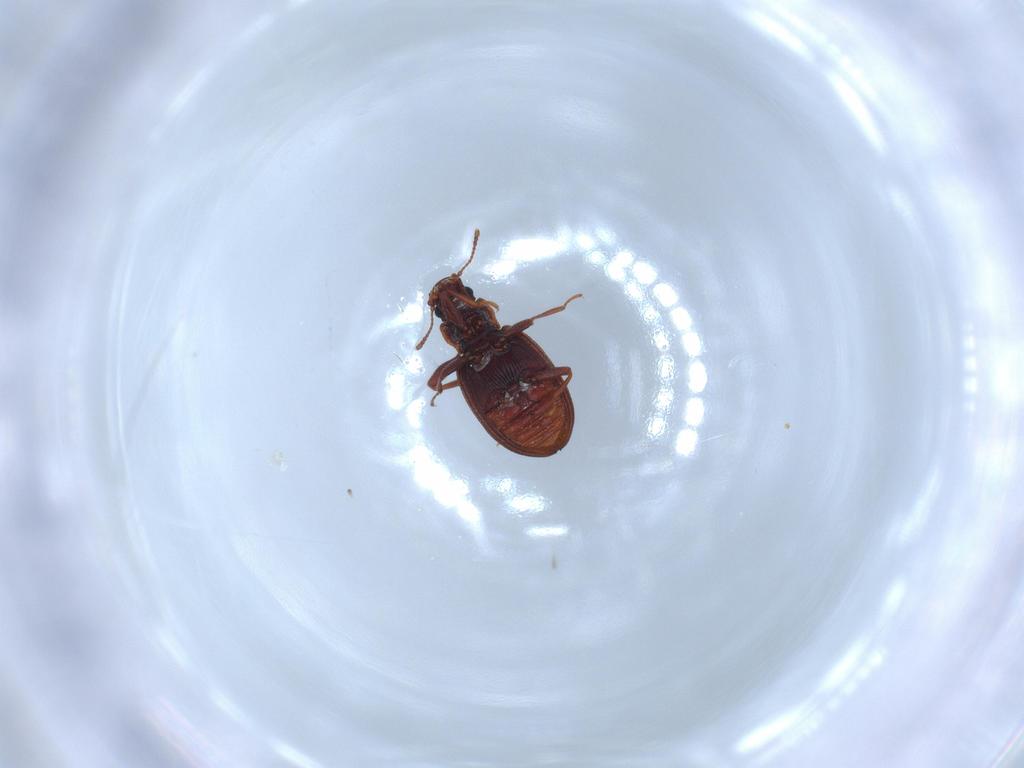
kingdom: Animalia
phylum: Arthropoda
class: Insecta
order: Coleoptera
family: Latridiidae
